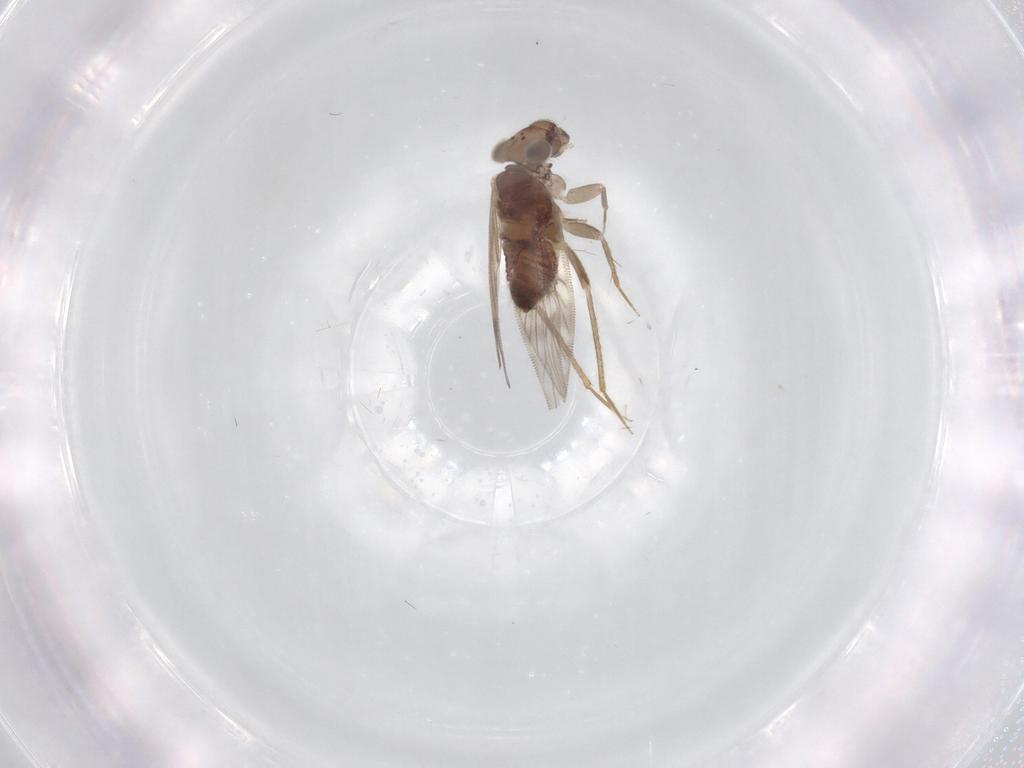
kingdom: Animalia
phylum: Arthropoda
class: Insecta
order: Psocodea
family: Lepidopsocidae
